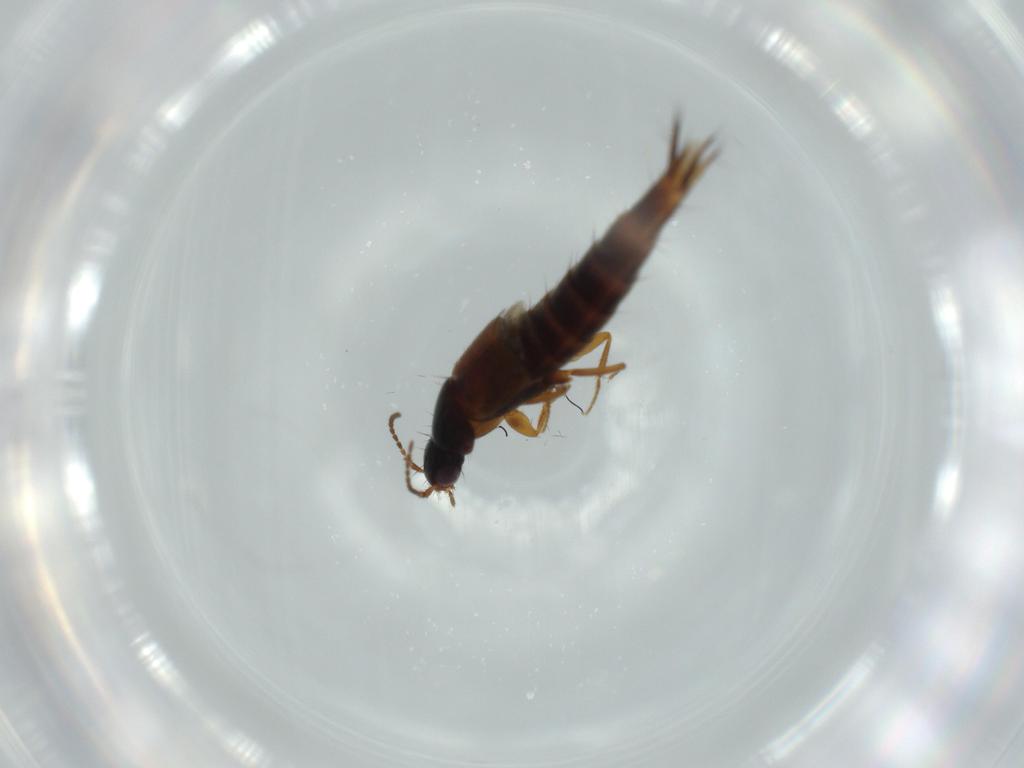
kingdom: Animalia
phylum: Arthropoda
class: Insecta
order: Coleoptera
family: Staphylinidae
